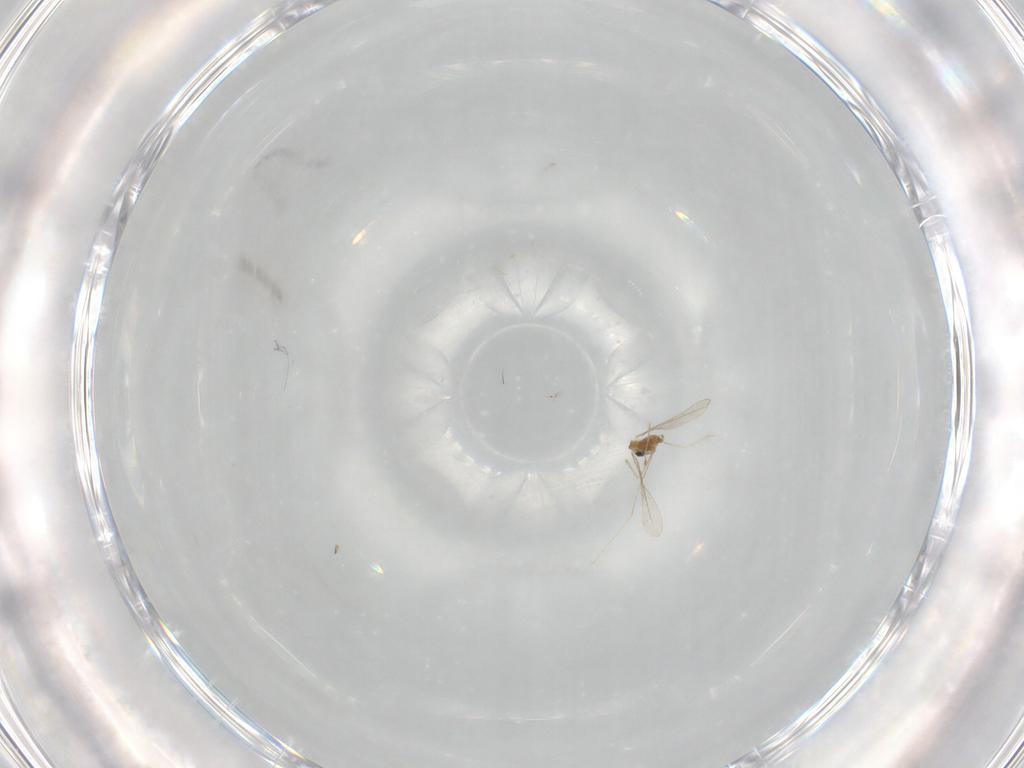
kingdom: Animalia
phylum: Arthropoda
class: Insecta
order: Diptera
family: Cecidomyiidae
